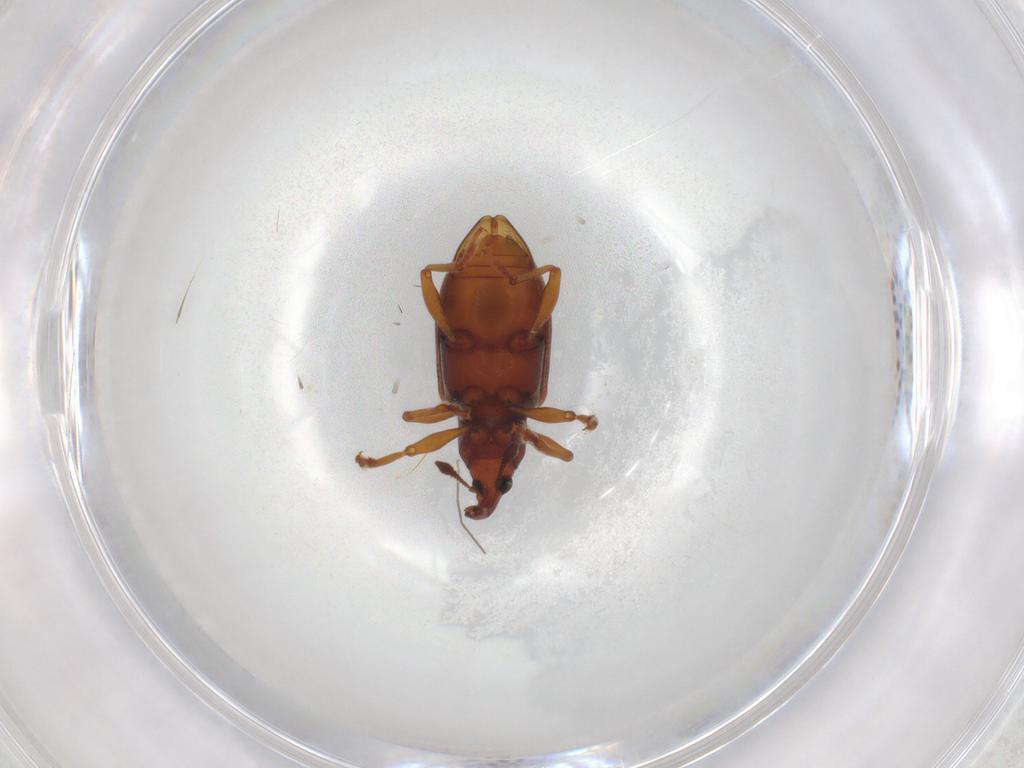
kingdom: Animalia
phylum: Arthropoda
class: Insecta
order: Coleoptera
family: Curculionidae
